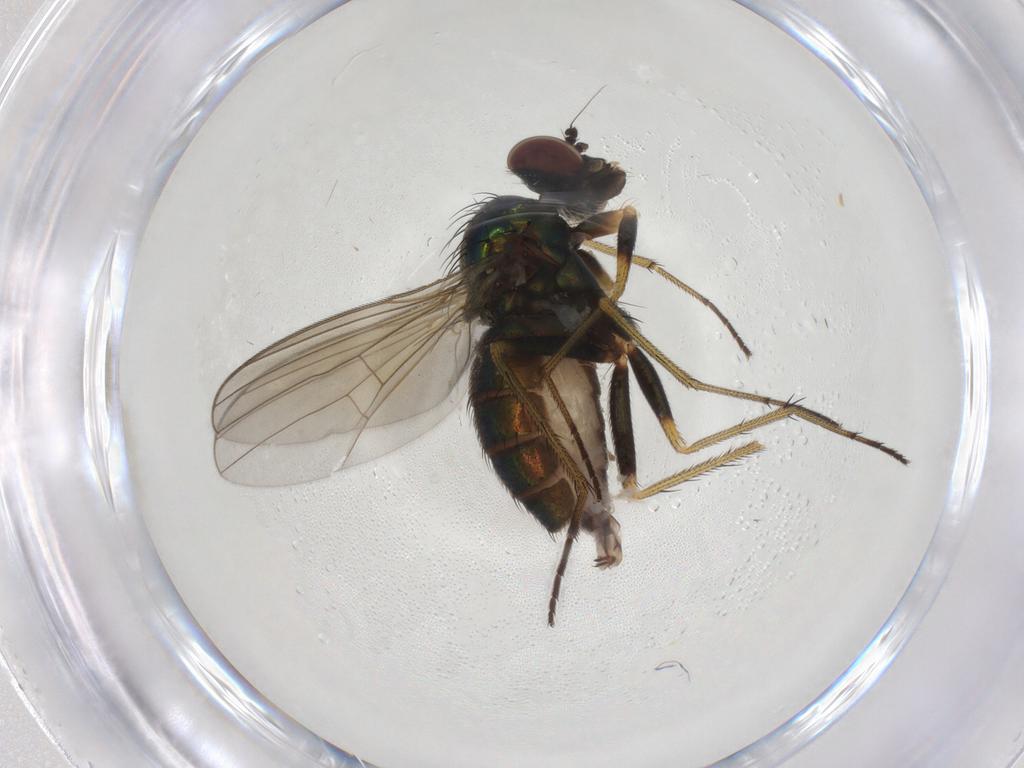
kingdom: Animalia
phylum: Arthropoda
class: Insecta
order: Diptera
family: Dolichopodidae
